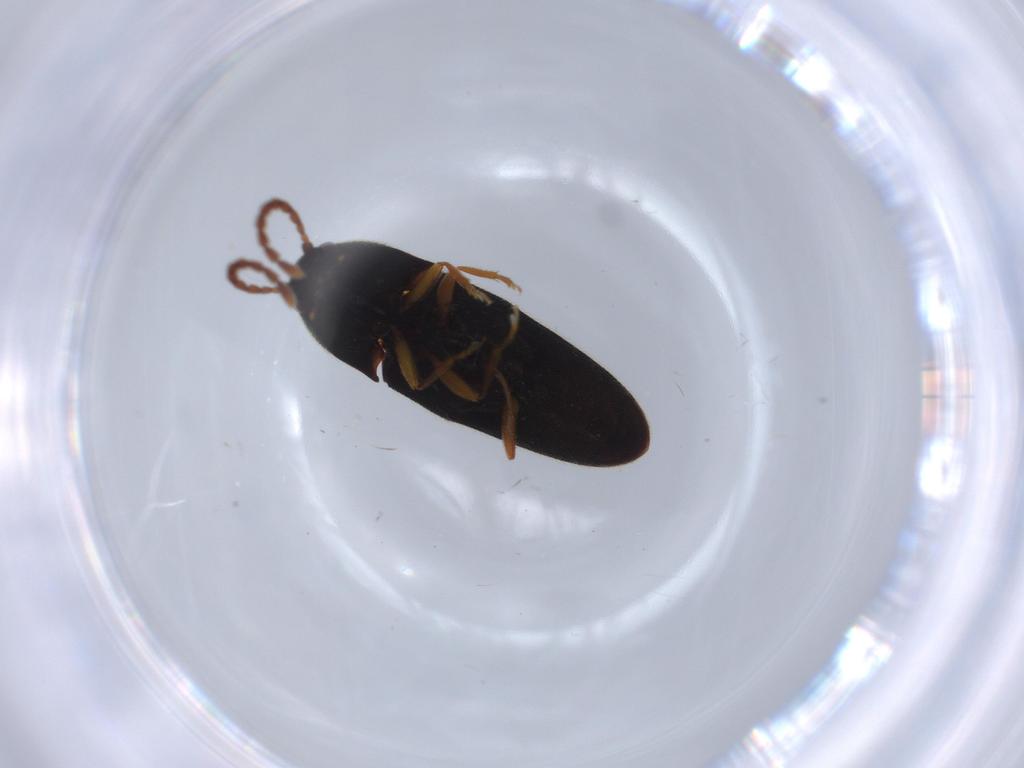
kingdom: Animalia
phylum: Arthropoda
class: Insecta
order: Coleoptera
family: Elateridae
